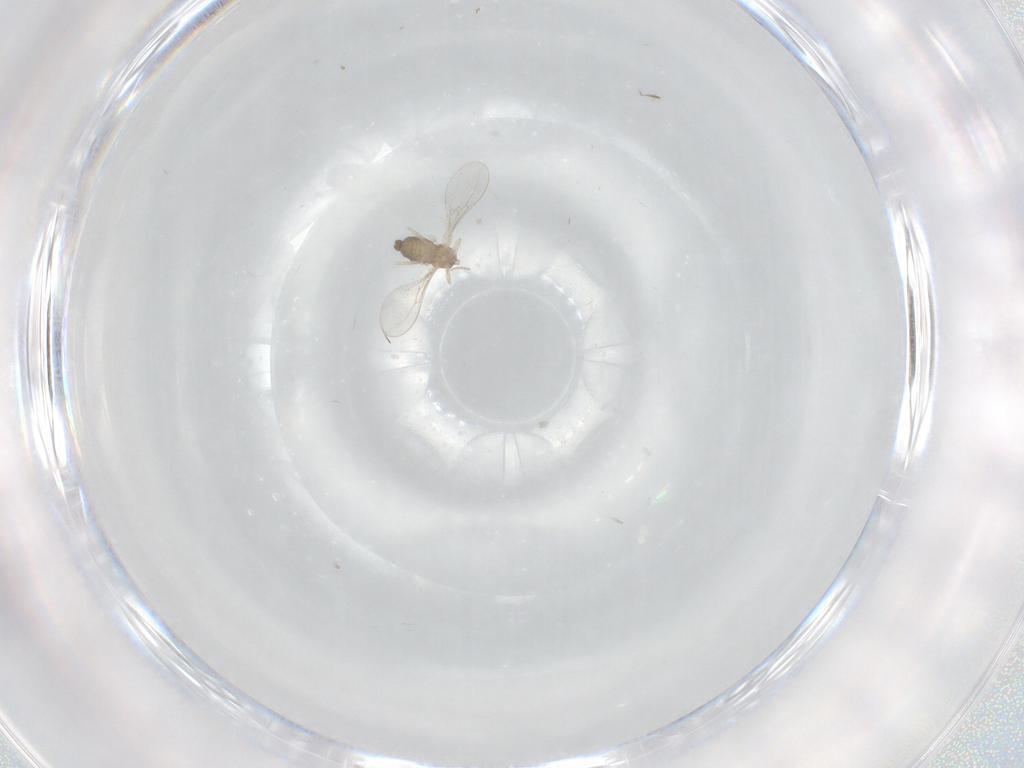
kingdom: Animalia
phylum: Arthropoda
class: Insecta
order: Diptera
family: Cecidomyiidae
